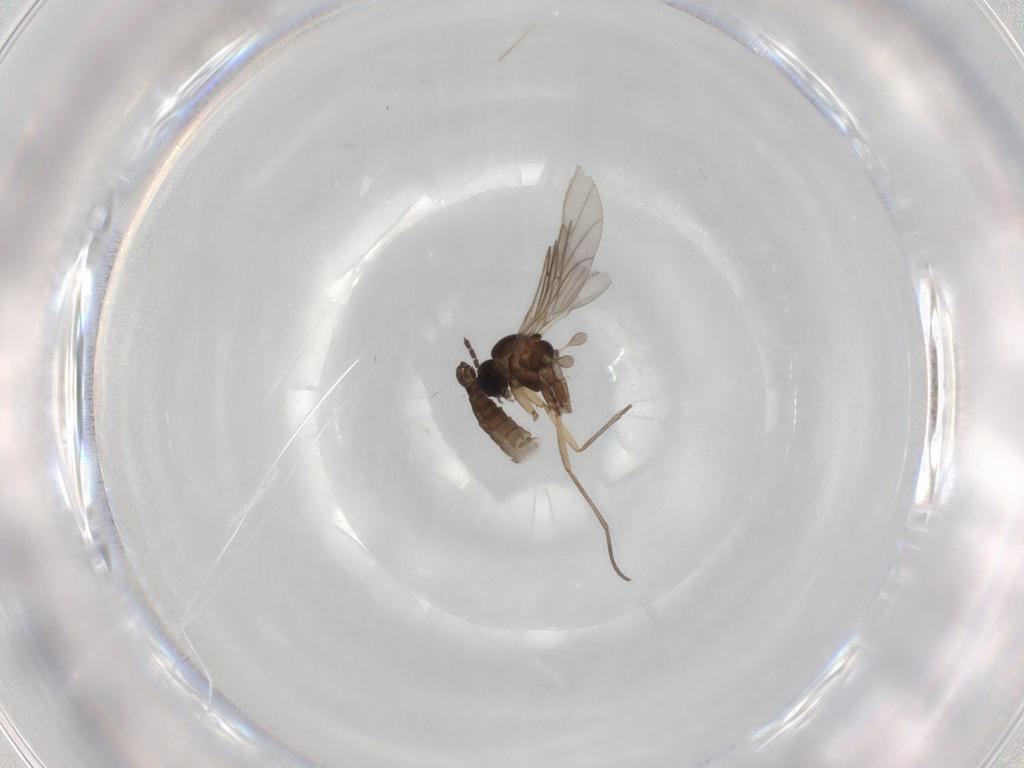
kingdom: Animalia
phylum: Arthropoda
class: Insecta
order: Diptera
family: Sciaridae
